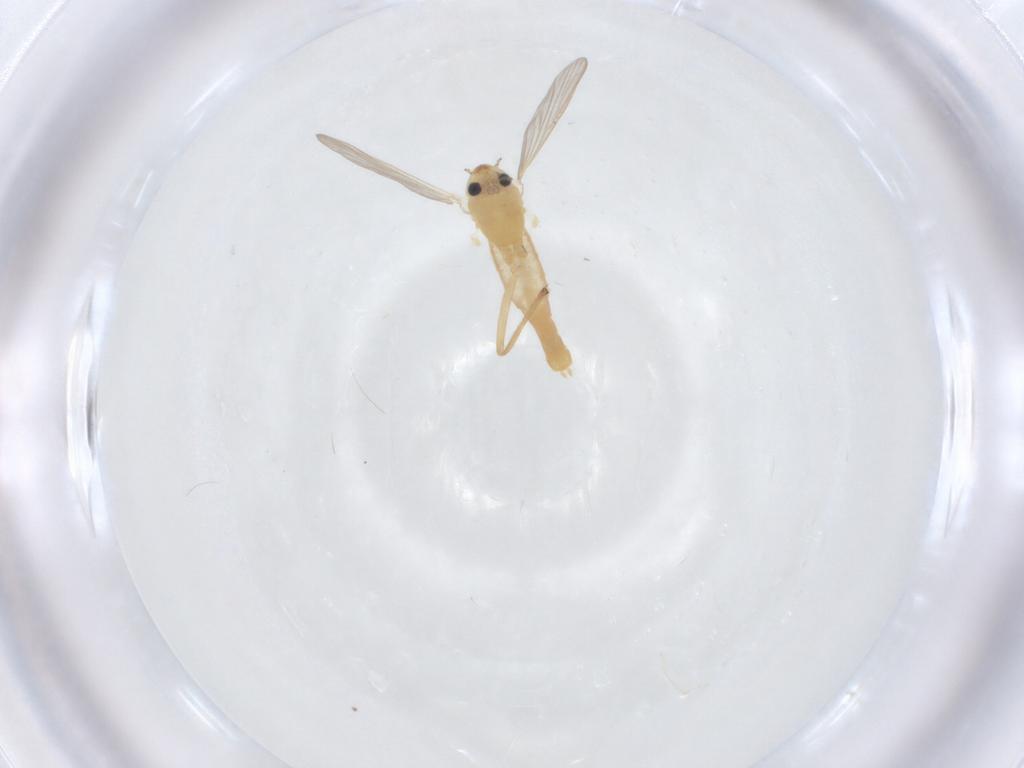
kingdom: Animalia
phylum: Arthropoda
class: Insecta
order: Diptera
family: Chironomidae
